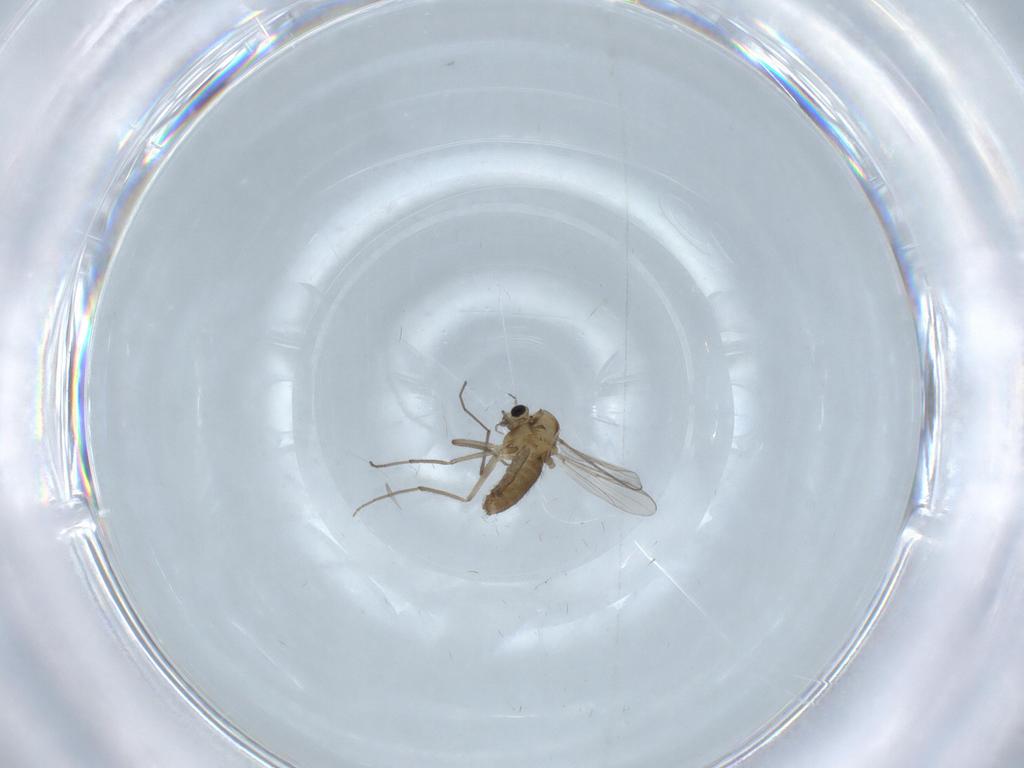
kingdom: Animalia
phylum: Arthropoda
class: Insecta
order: Diptera
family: Chironomidae
